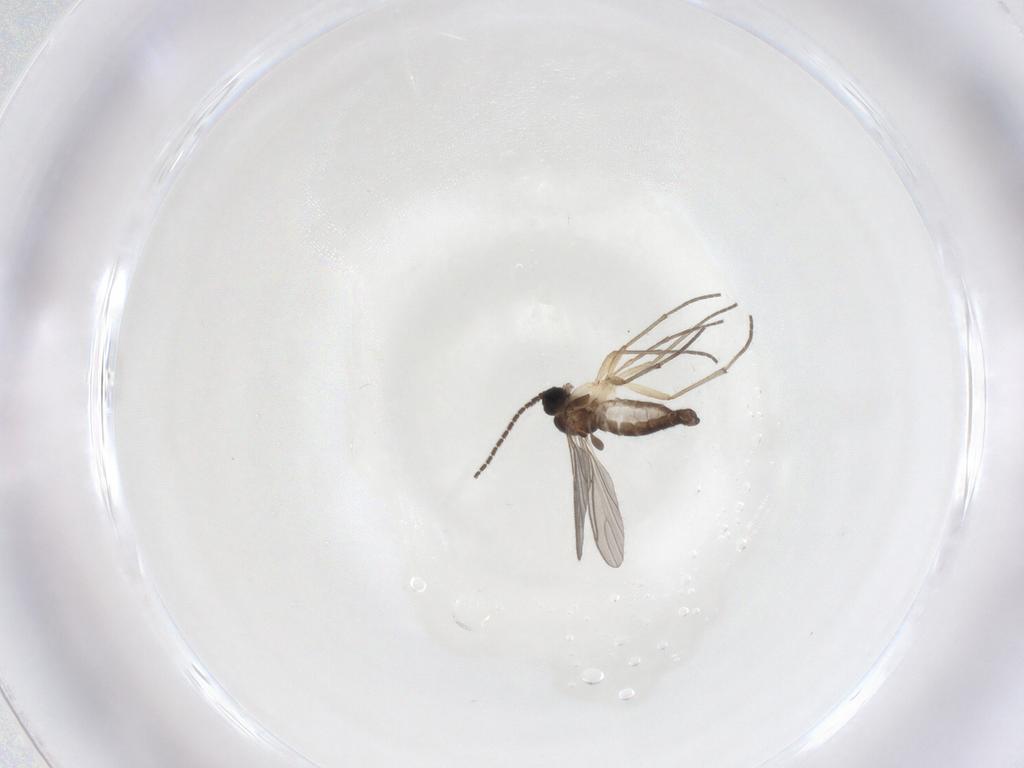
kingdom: Animalia
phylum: Arthropoda
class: Insecta
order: Diptera
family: Sciaridae
